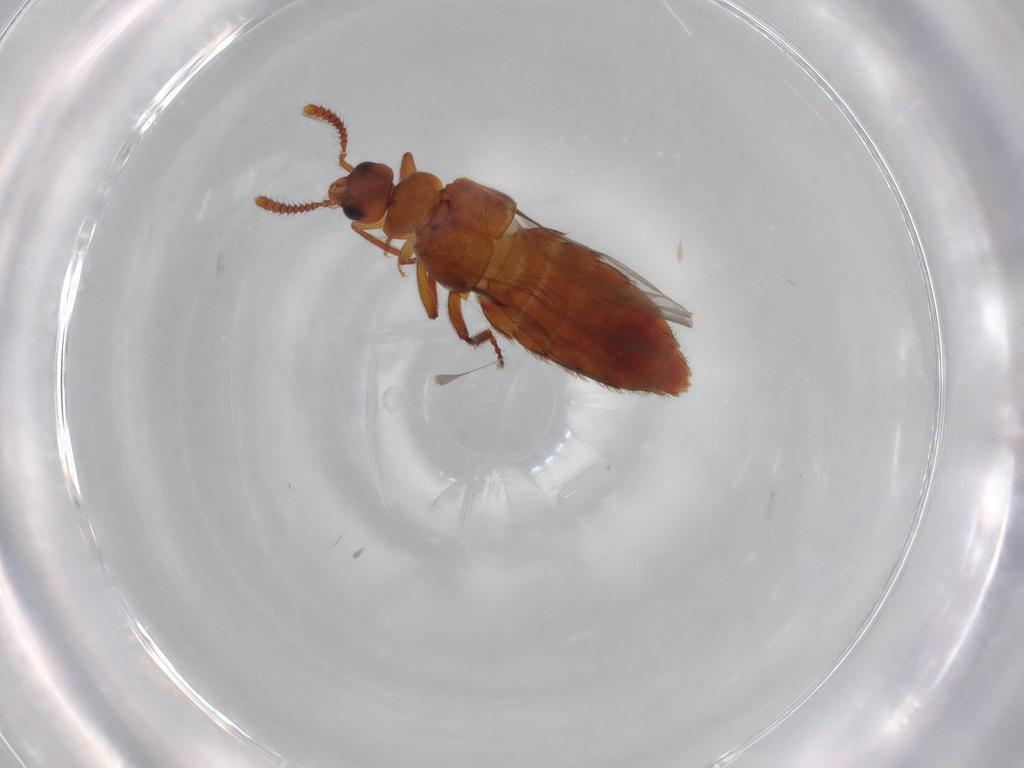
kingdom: Animalia
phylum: Arthropoda
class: Insecta
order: Coleoptera
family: Staphylinidae
